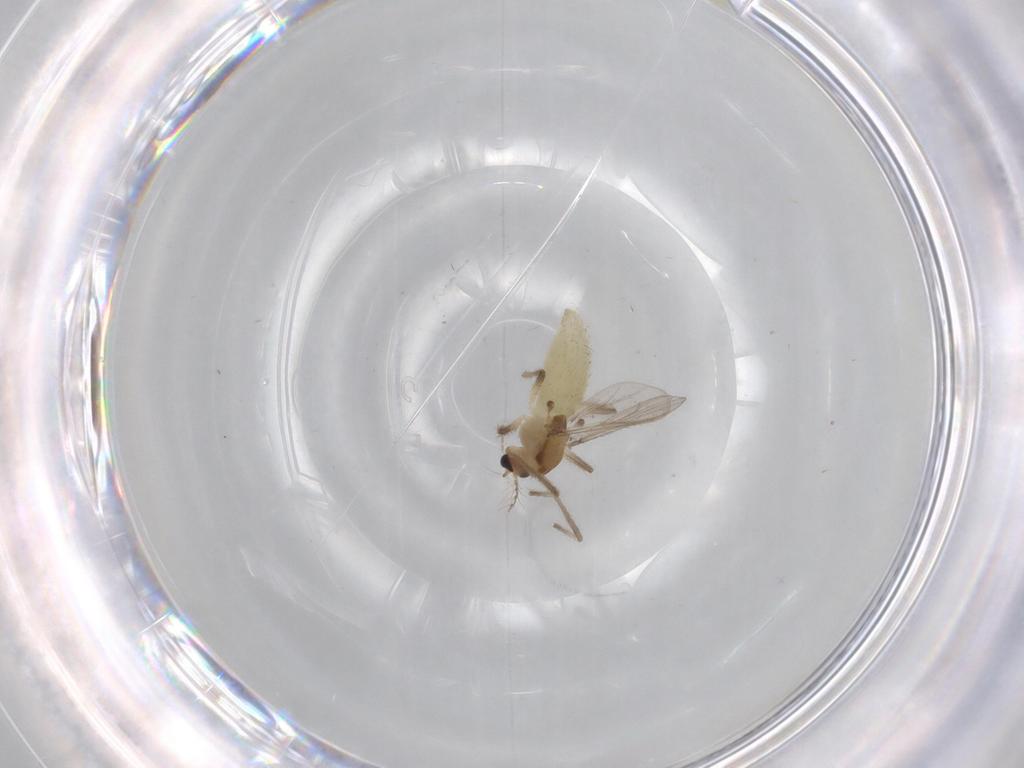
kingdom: Animalia
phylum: Arthropoda
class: Insecta
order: Diptera
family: Chironomidae
